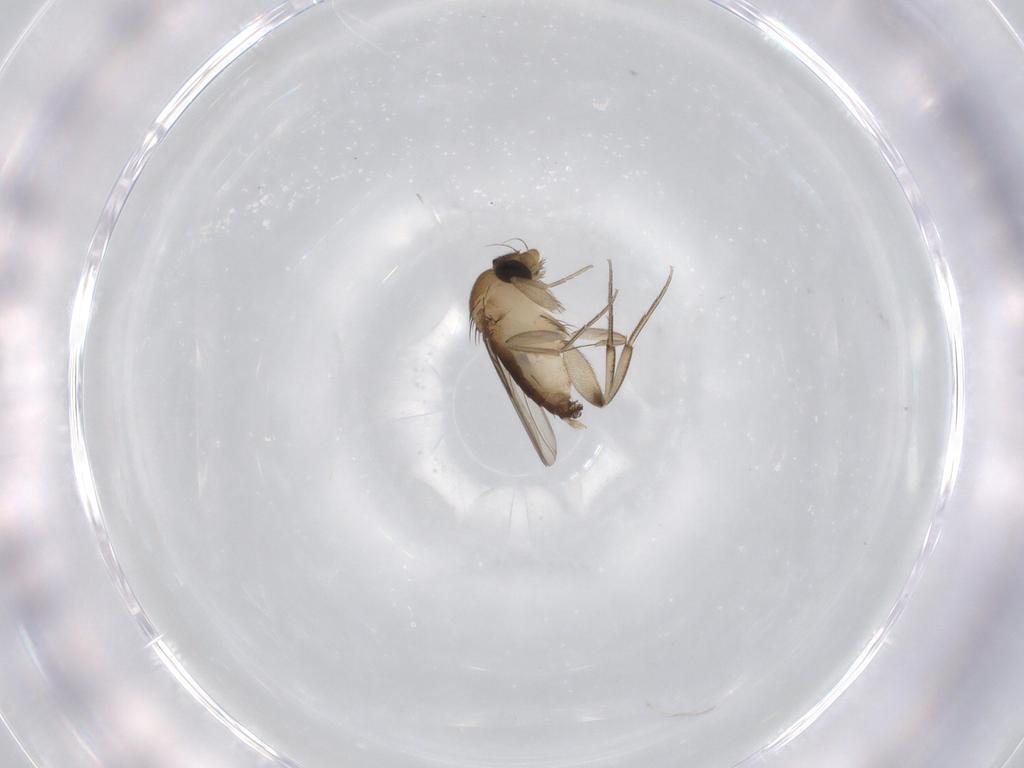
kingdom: Animalia
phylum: Arthropoda
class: Insecta
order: Diptera
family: Phoridae
